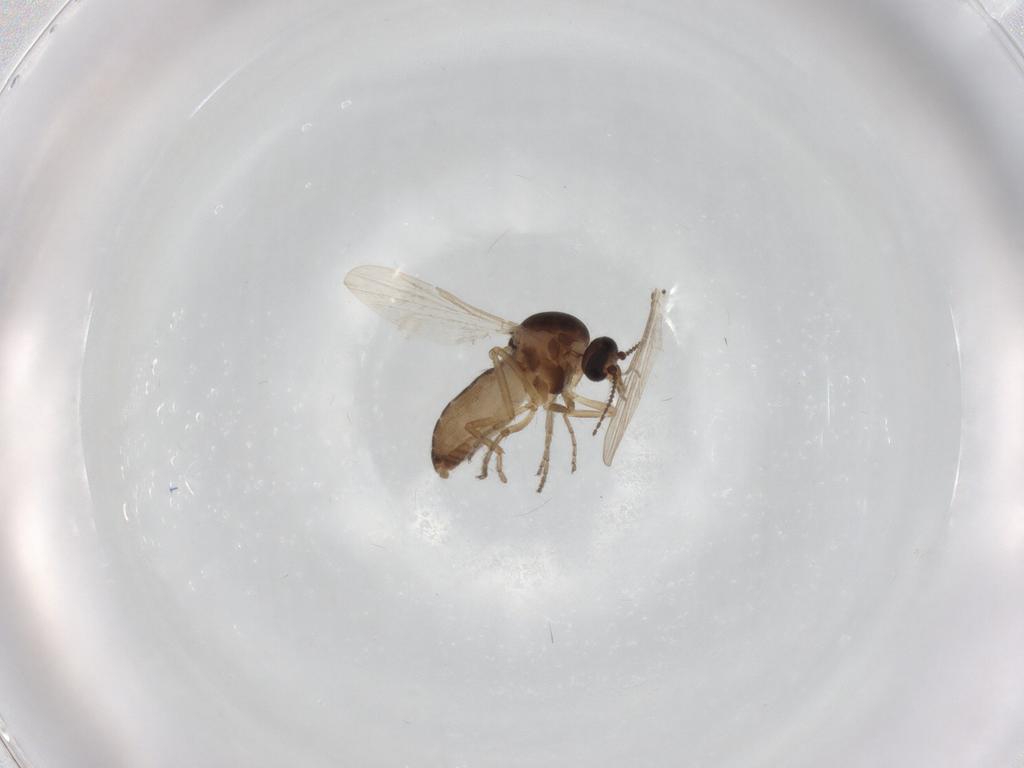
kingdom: Animalia
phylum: Arthropoda
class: Insecta
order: Diptera
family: Ceratopogonidae
